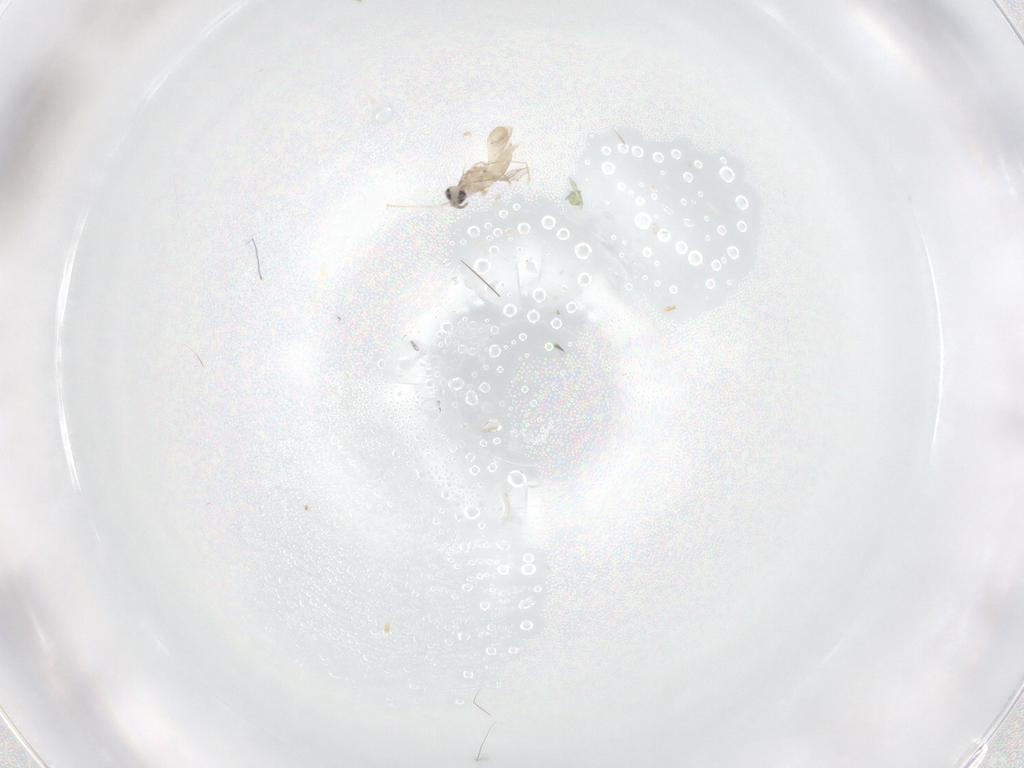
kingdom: Animalia
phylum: Arthropoda
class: Insecta
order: Diptera
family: Cecidomyiidae
